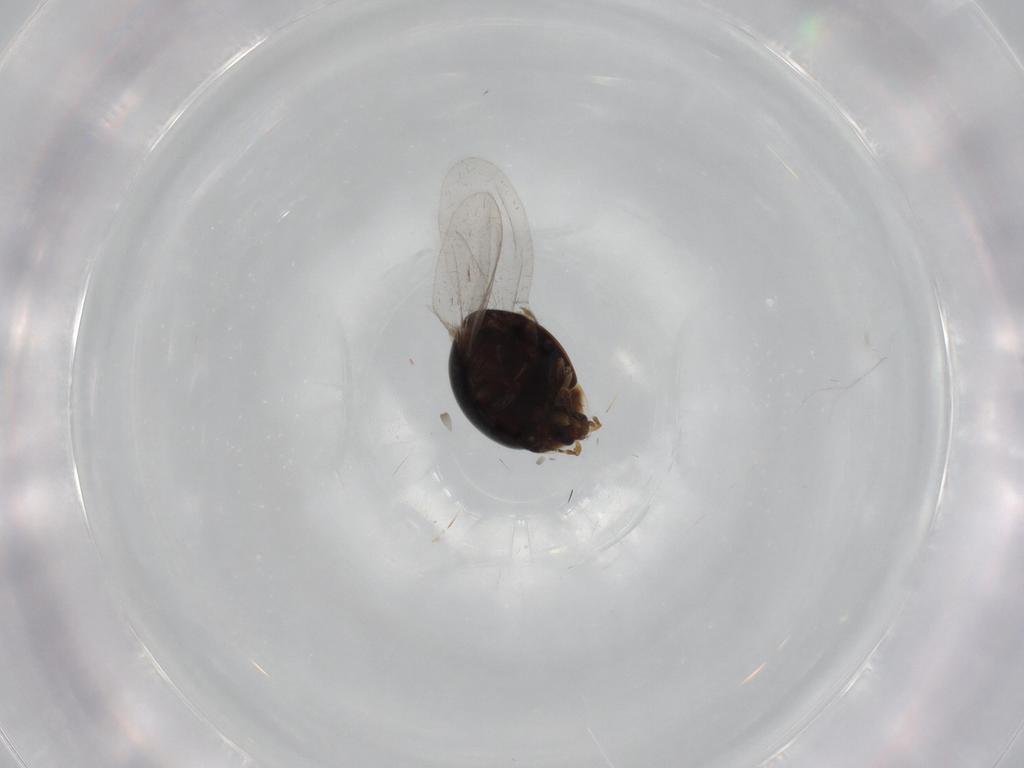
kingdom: Animalia
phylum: Arthropoda
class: Insecta
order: Coleoptera
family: Corylophidae
